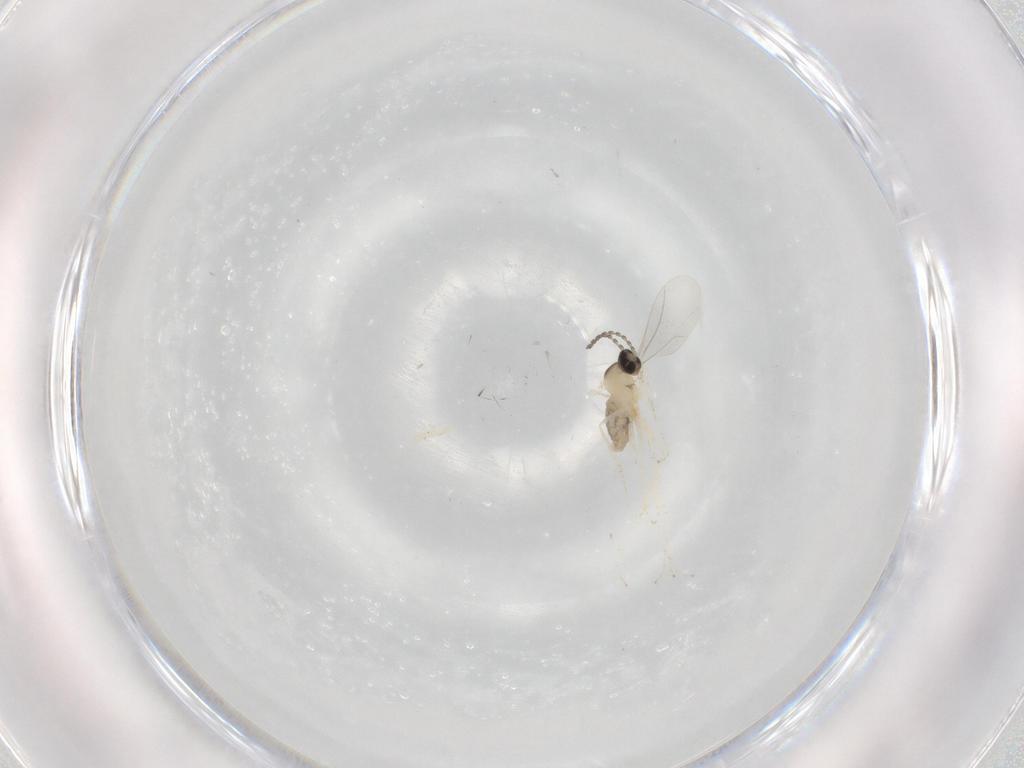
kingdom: Animalia
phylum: Arthropoda
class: Insecta
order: Diptera
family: Cecidomyiidae
